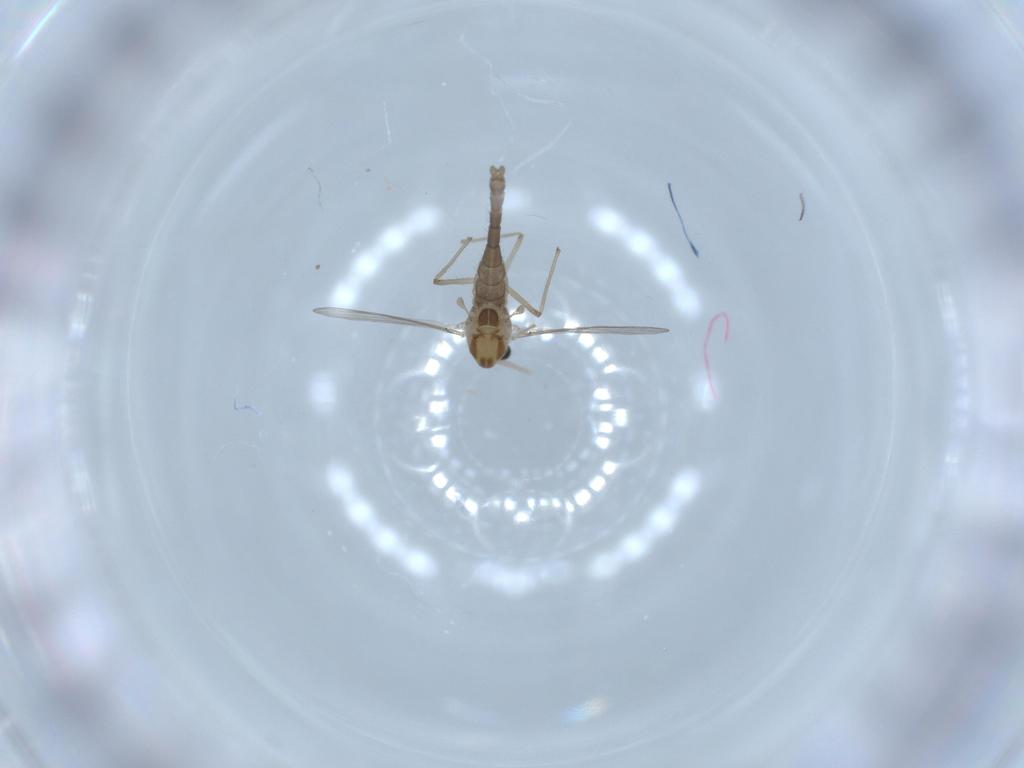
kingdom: Animalia
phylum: Arthropoda
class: Insecta
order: Diptera
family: Chironomidae
